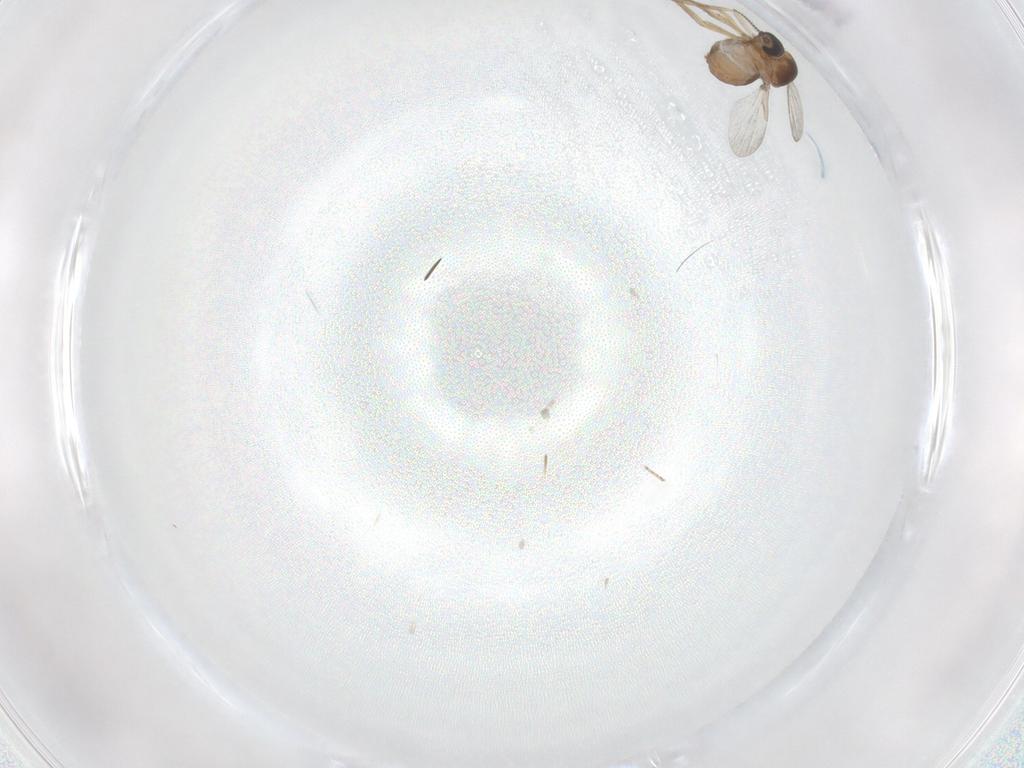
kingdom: Animalia
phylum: Arthropoda
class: Insecta
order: Diptera
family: Ceratopogonidae
